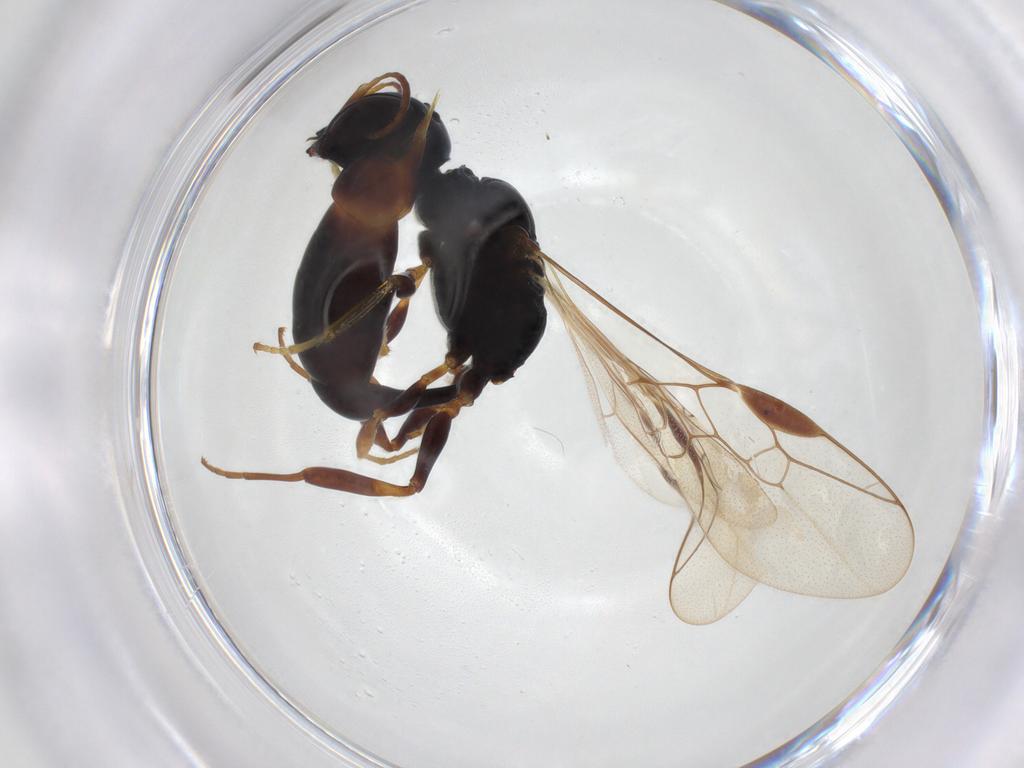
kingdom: Animalia
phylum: Arthropoda
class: Insecta
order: Hymenoptera
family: Pemphredonidae
